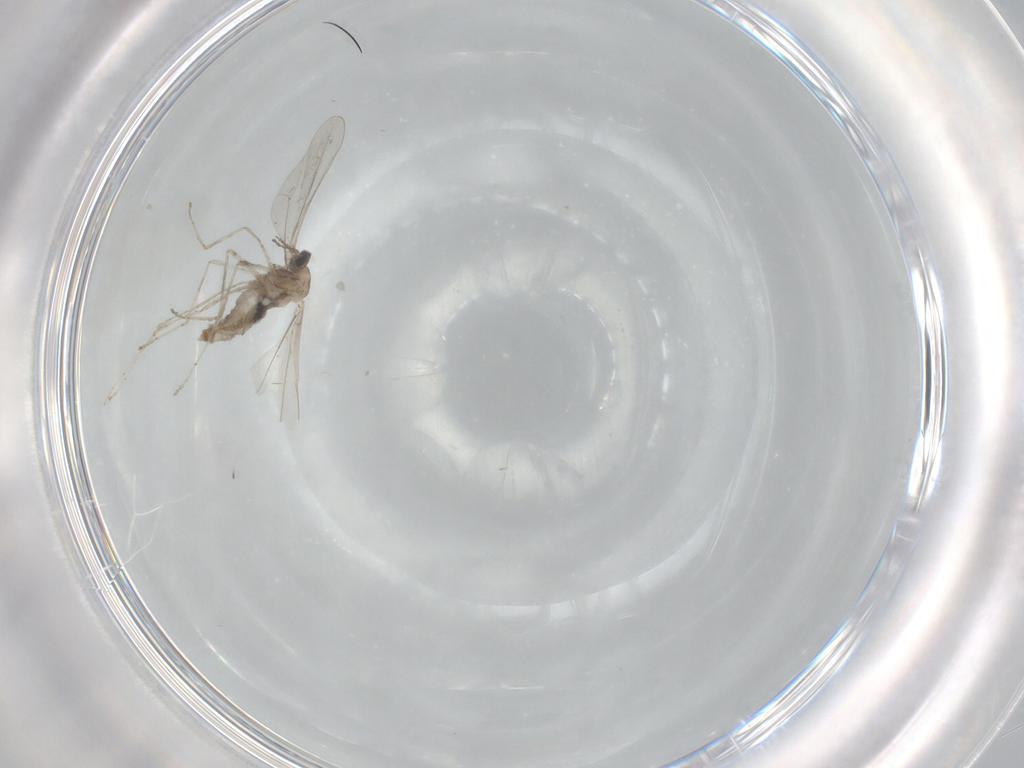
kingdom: Animalia
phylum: Arthropoda
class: Insecta
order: Diptera
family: Cecidomyiidae
